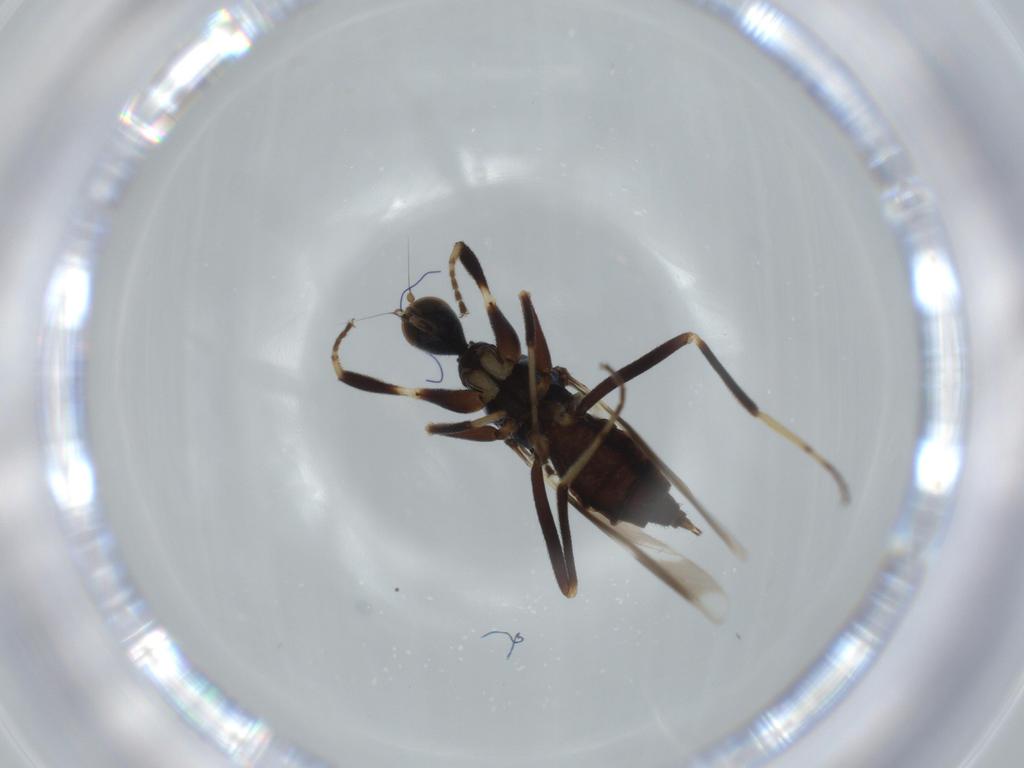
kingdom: Animalia
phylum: Arthropoda
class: Insecta
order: Diptera
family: Hybotidae
